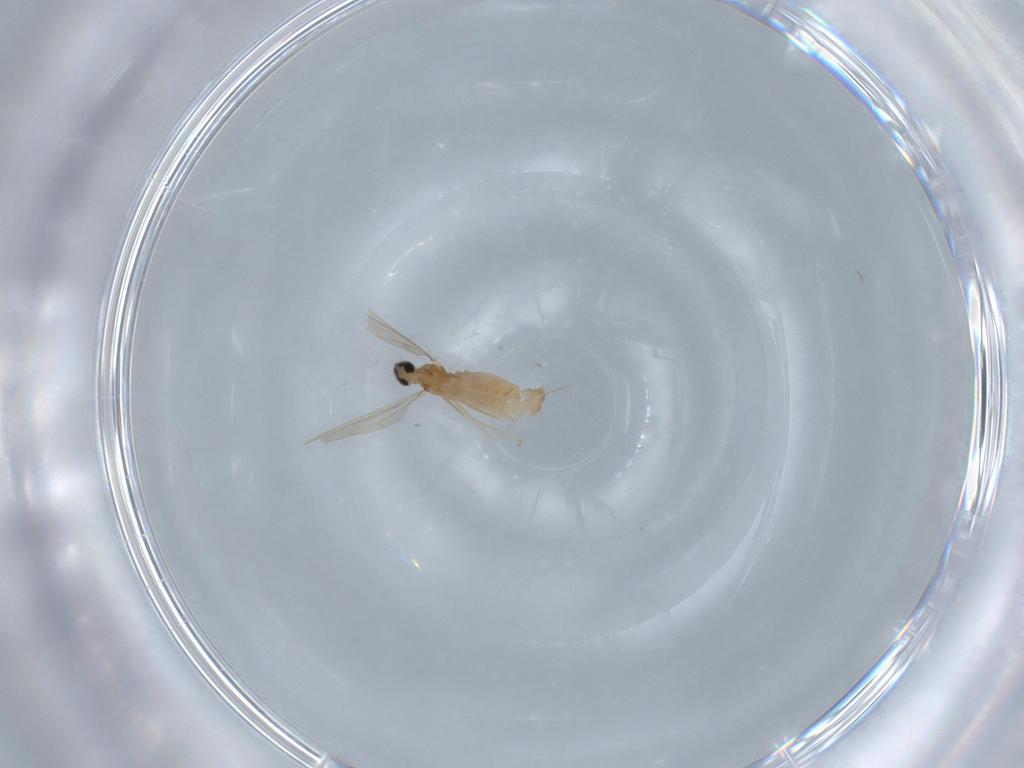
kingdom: Animalia
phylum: Arthropoda
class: Insecta
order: Diptera
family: Cecidomyiidae
